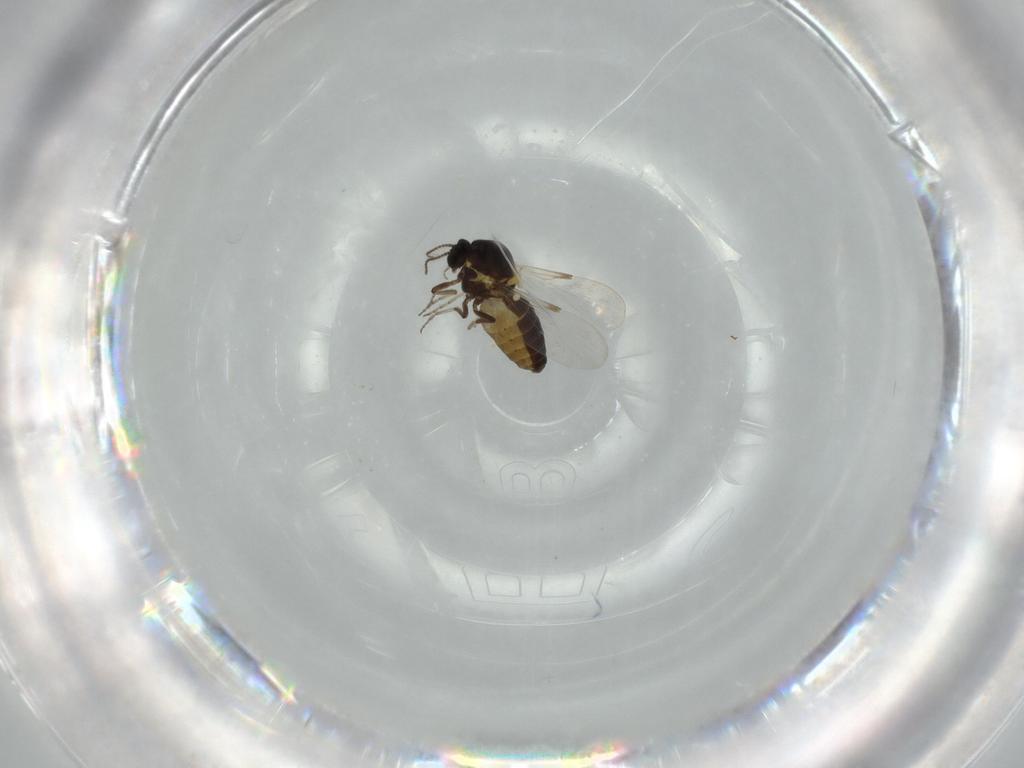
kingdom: Animalia
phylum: Arthropoda
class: Insecta
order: Diptera
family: Ceratopogonidae
